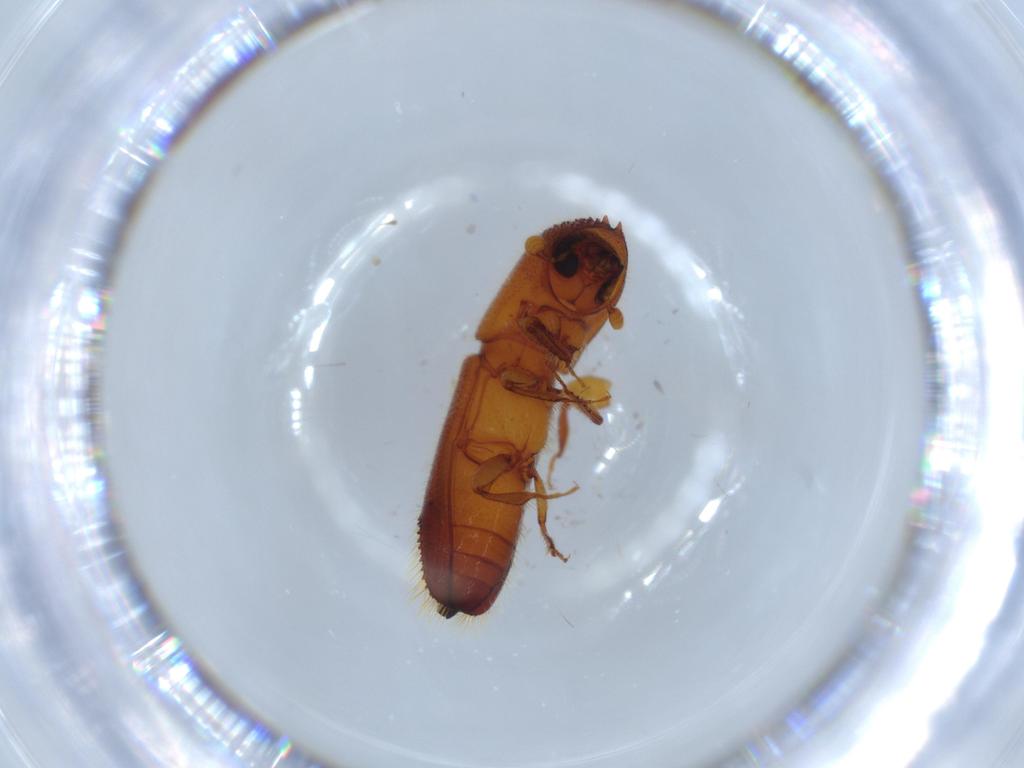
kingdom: Animalia
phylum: Arthropoda
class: Insecta
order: Coleoptera
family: Curculionidae
